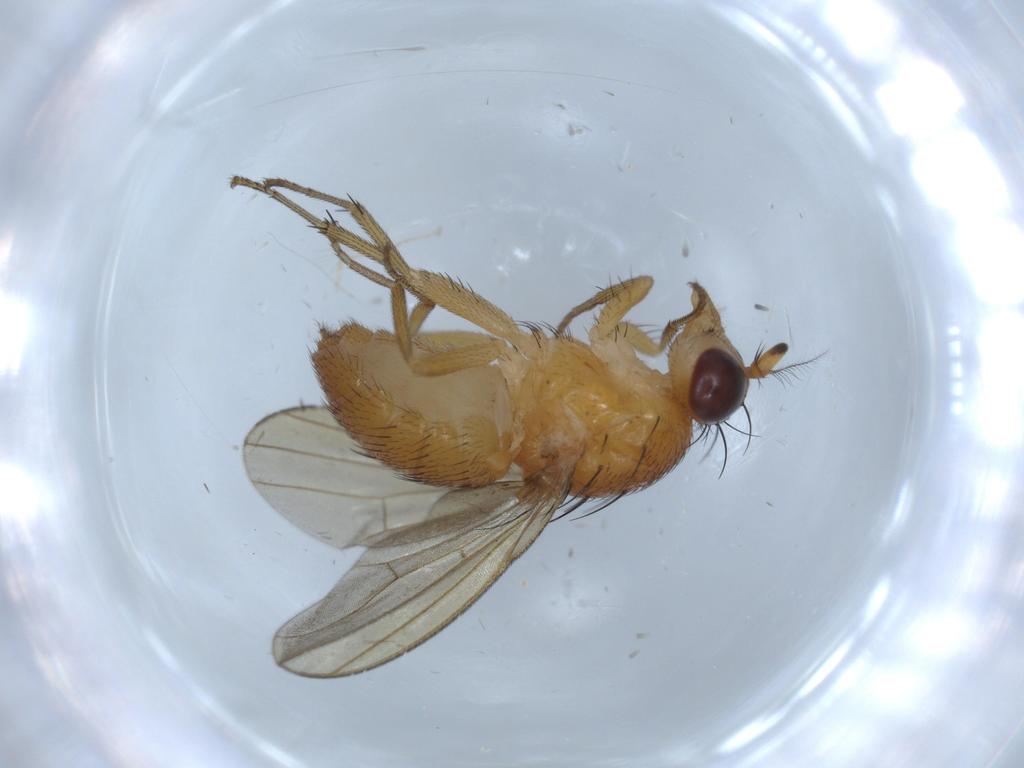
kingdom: Animalia
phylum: Arthropoda
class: Insecta
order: Diptera
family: Lauxaniidae
